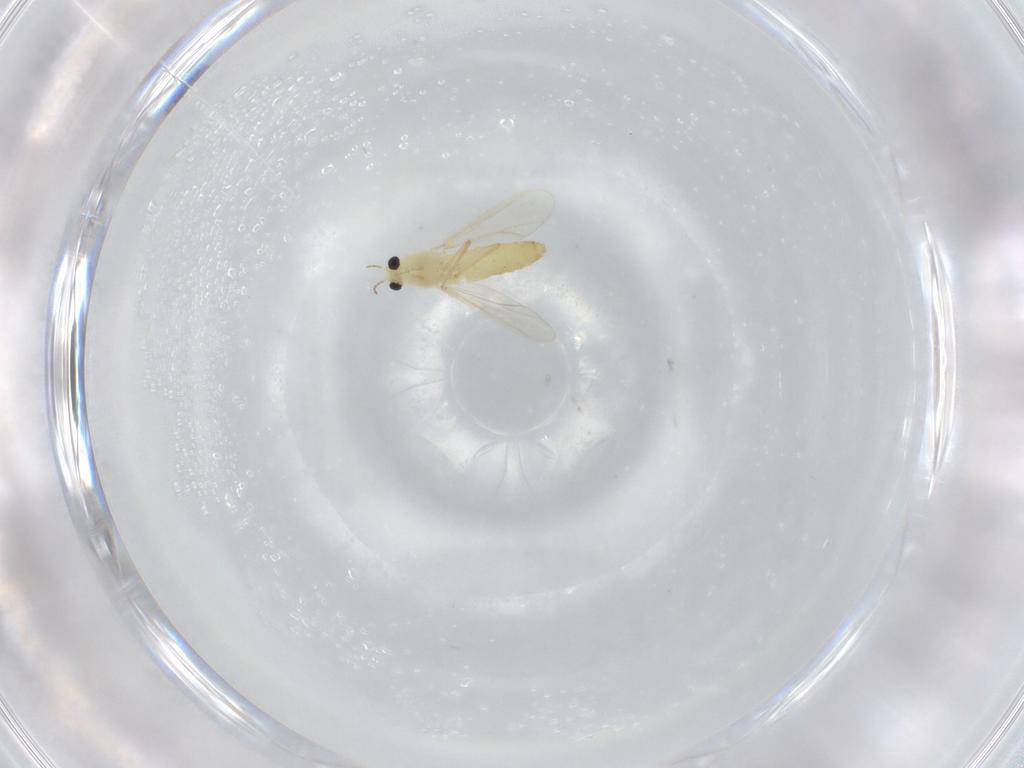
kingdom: Animalia
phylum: Arthropoda
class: Insecta
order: Diptera
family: Chironomidae
